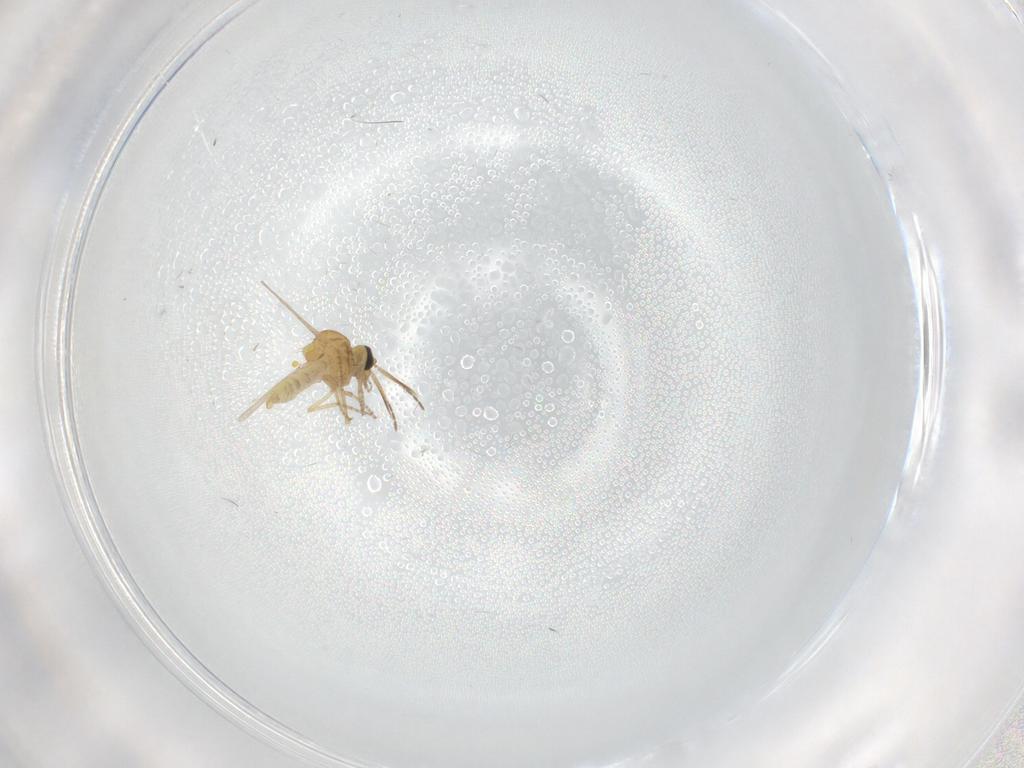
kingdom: Animalia
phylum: Arthropoda
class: Insecta
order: Diptera
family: Ceratopogonidae
